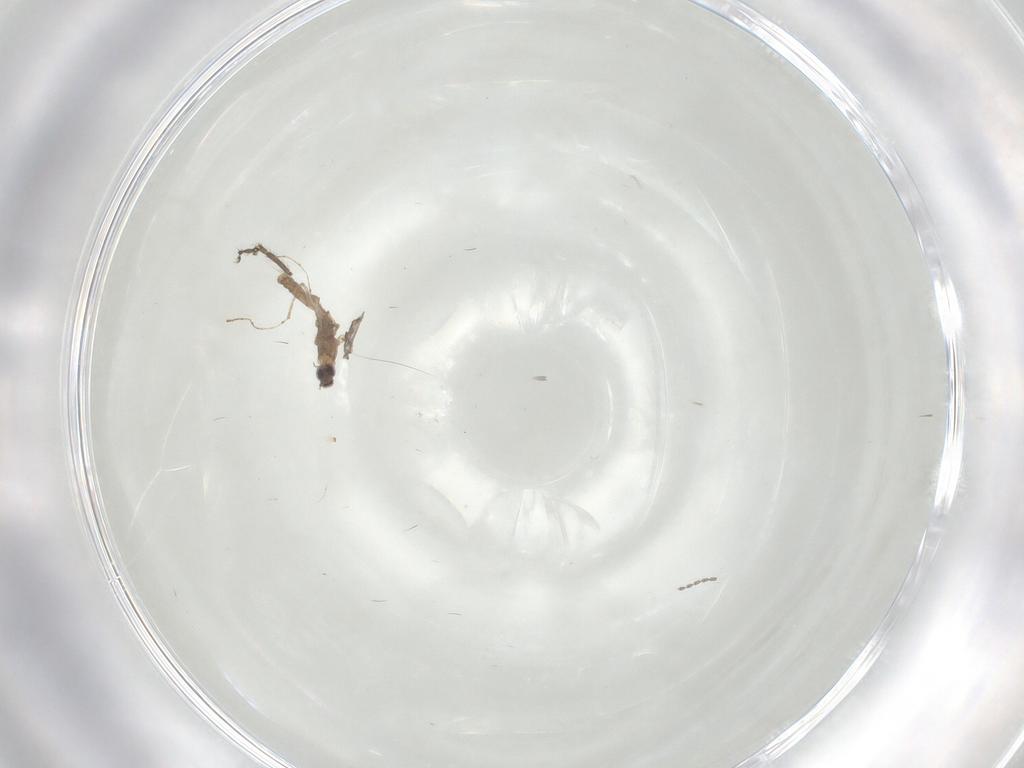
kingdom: Animalia
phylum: Arthropoda
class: Insecta
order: Diptera
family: Cecidomyiidae
